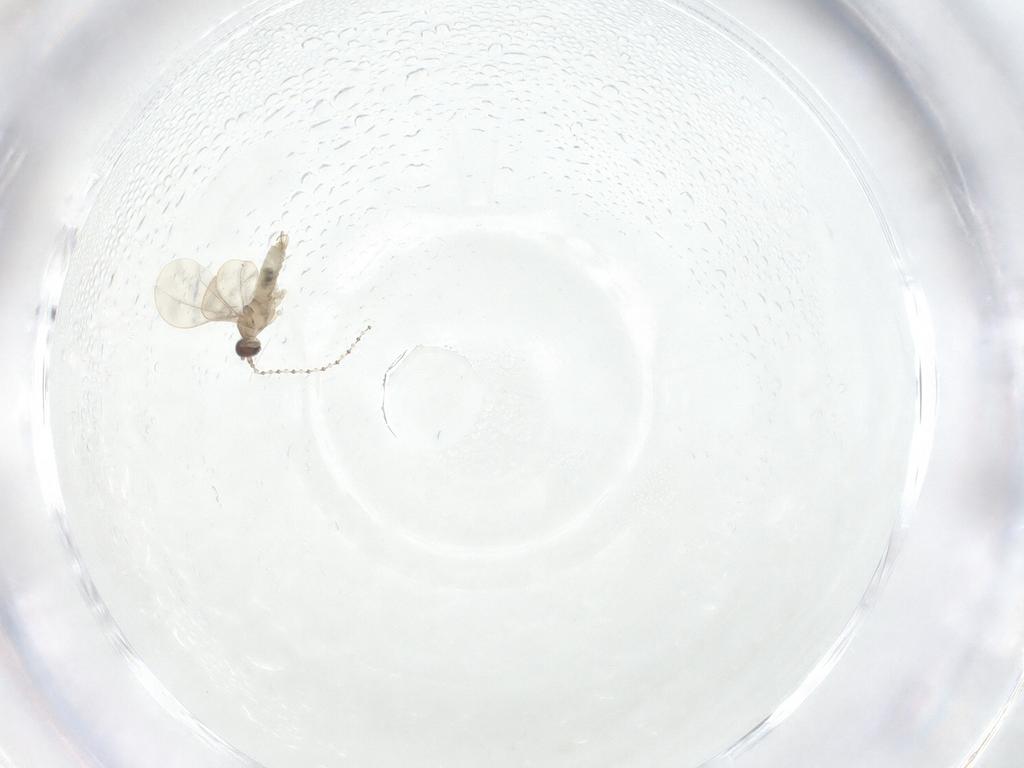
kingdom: Animalia
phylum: Arthropoda
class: Insecta
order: Diptera
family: Cecidomyiidae
